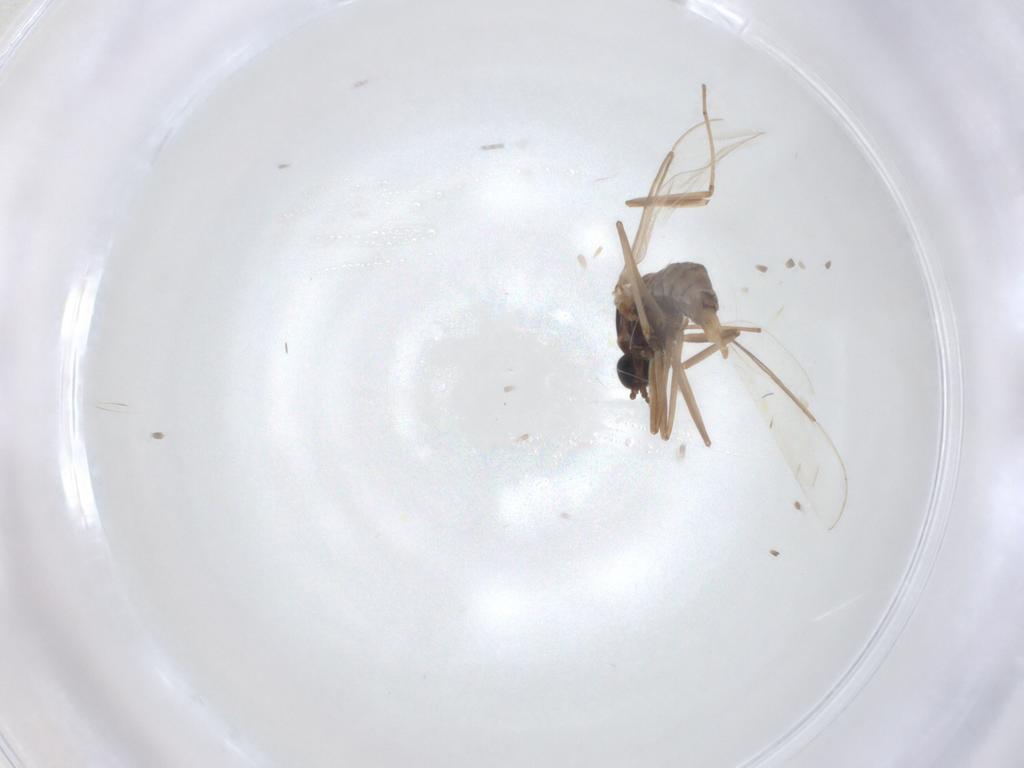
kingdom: Animalia
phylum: Arthropoda
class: Insecta
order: Diptera
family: Cecidomyiidae
